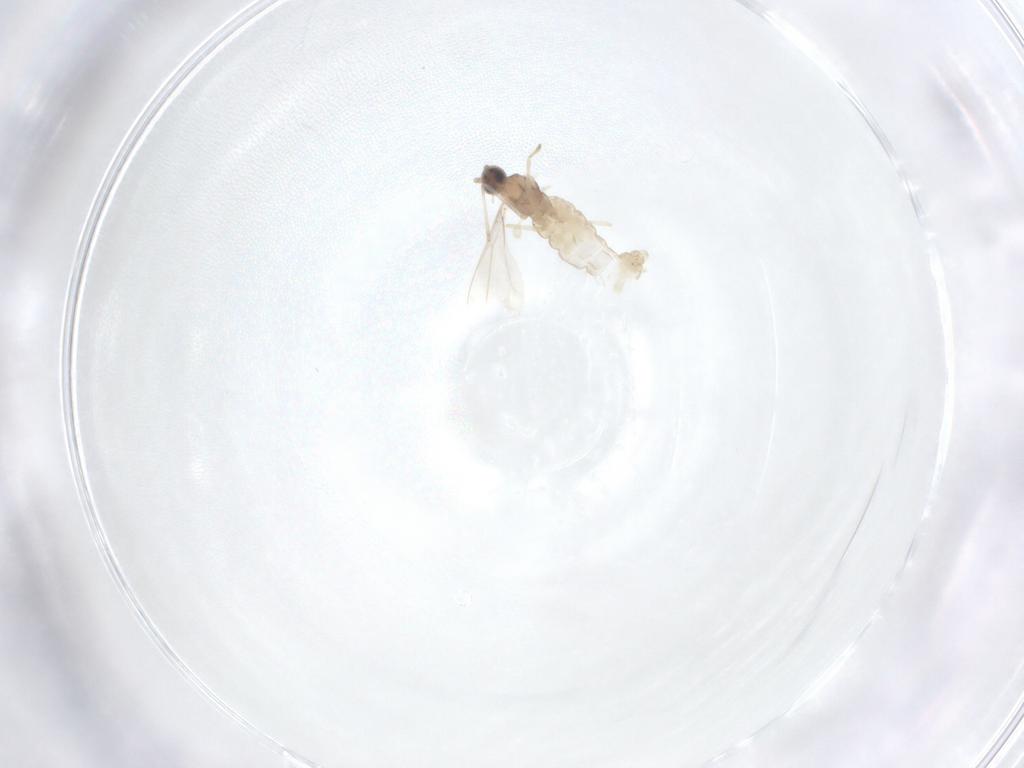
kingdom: Animalia
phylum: Arthropoda
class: Insecta
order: Diptera
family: Cecidomyiidae
